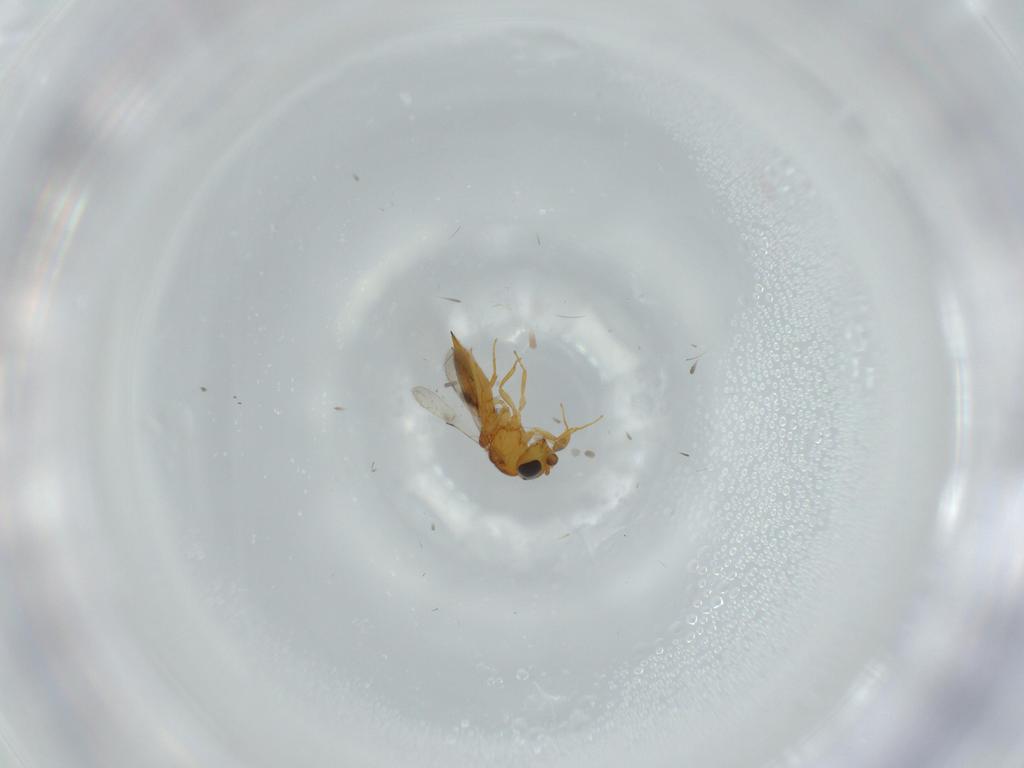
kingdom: Animalia
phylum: Arthropoda
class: Insecta
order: Hymenoptera
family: Scelionidae
